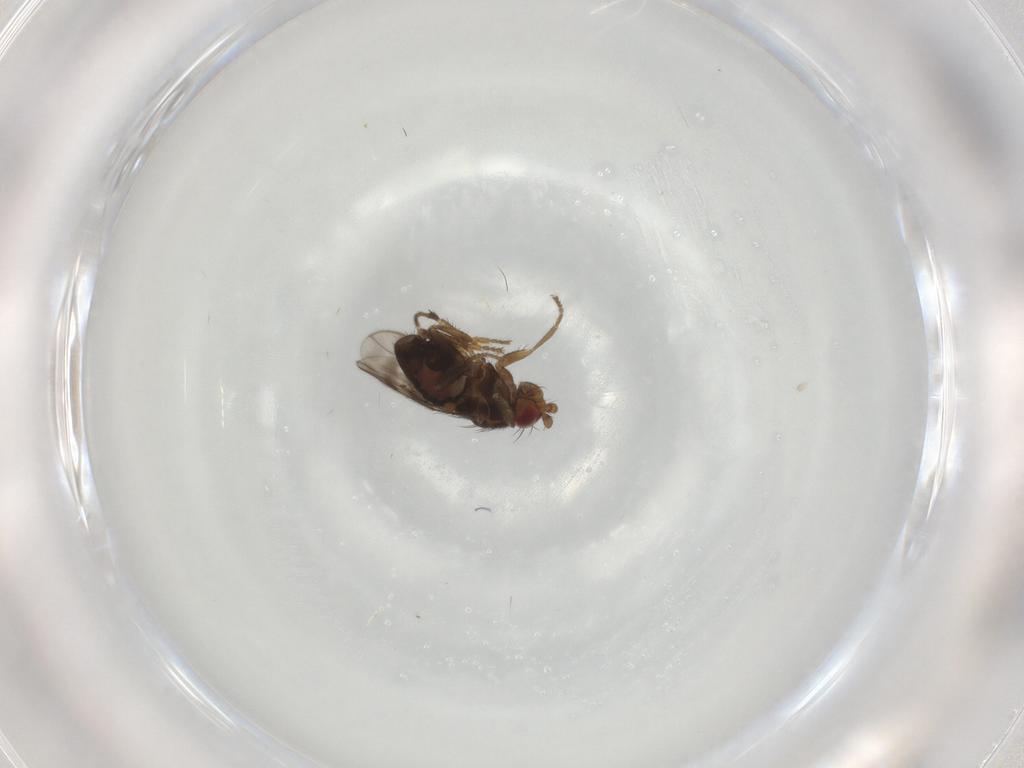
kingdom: Animalia
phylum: Arthropoda
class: Insecta
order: Diptera
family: Sphaeroceridae
